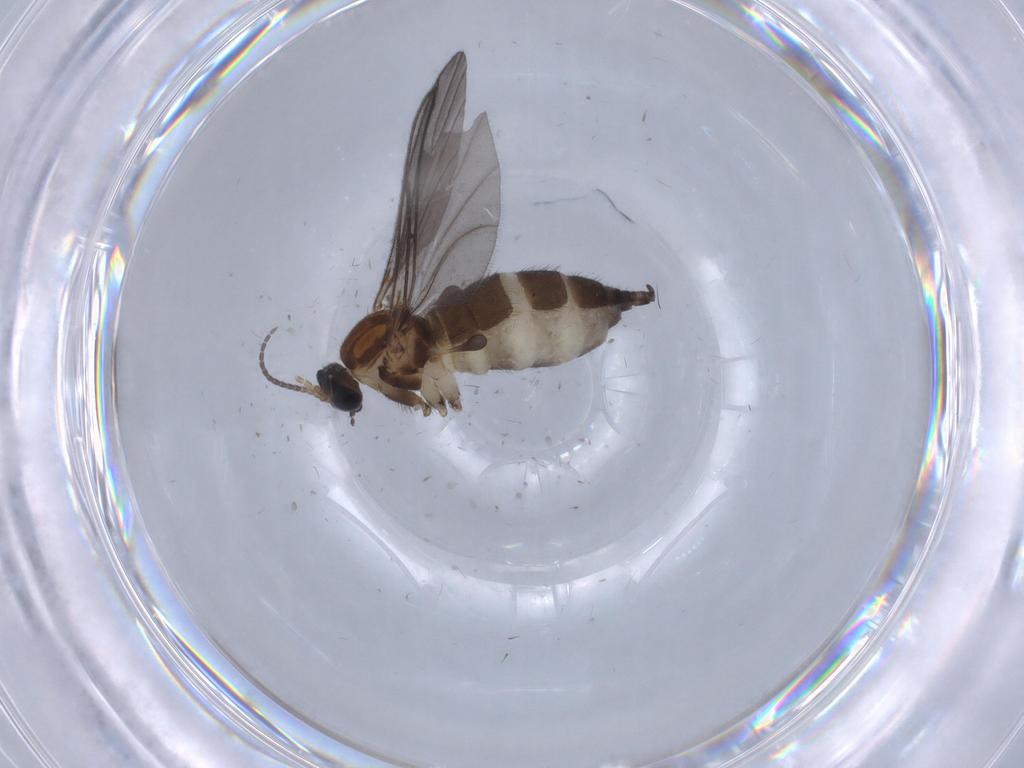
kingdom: Animalia
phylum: Arthropoda
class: Insecta
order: Diptera
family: Sciaridae
